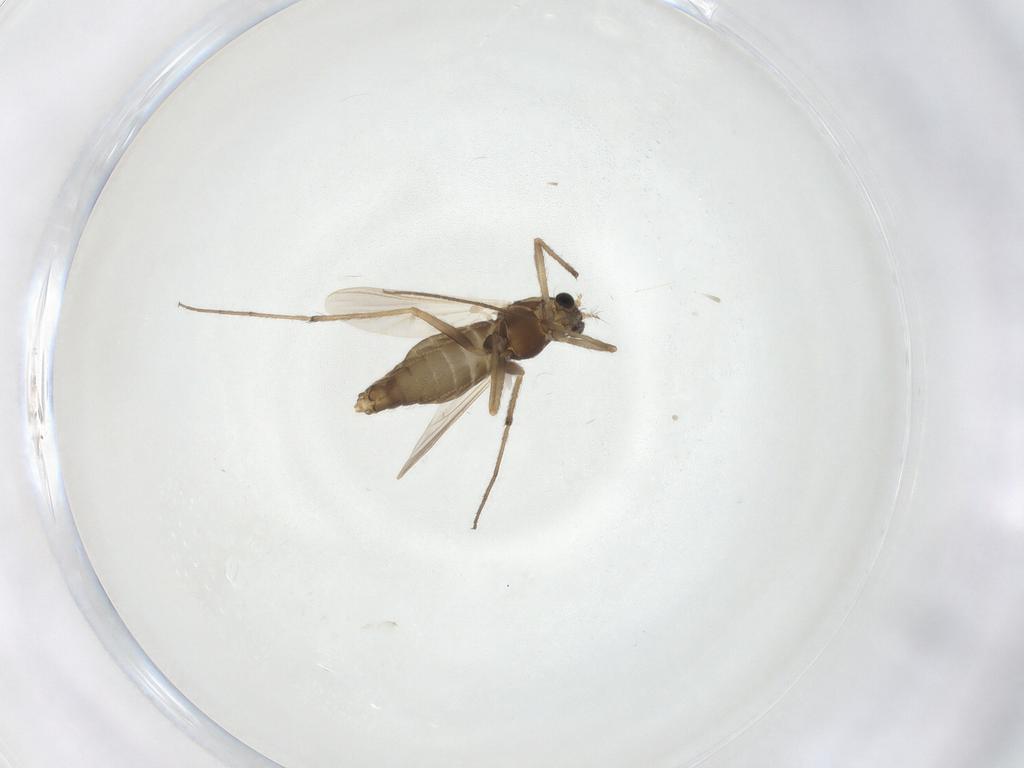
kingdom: Animalia
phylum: Arthropoda
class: Insecta
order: Diptera
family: Chironomidae
